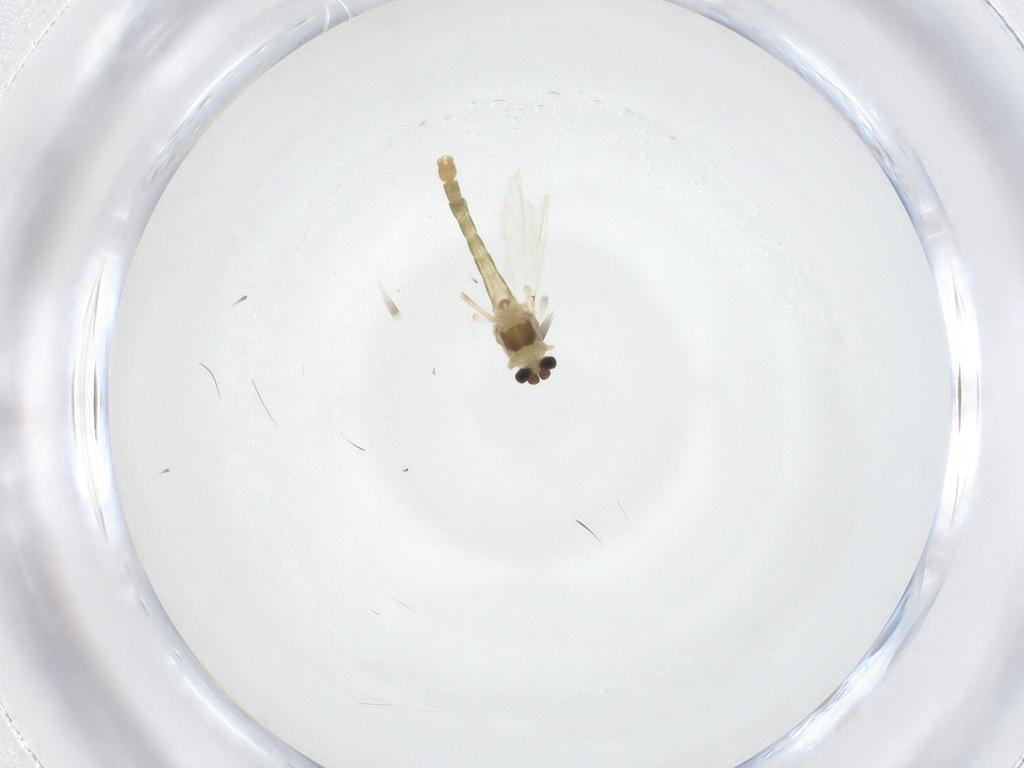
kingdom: Animalia
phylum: Arthropoda
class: Insecta
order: Diptera
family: Chironomidae
